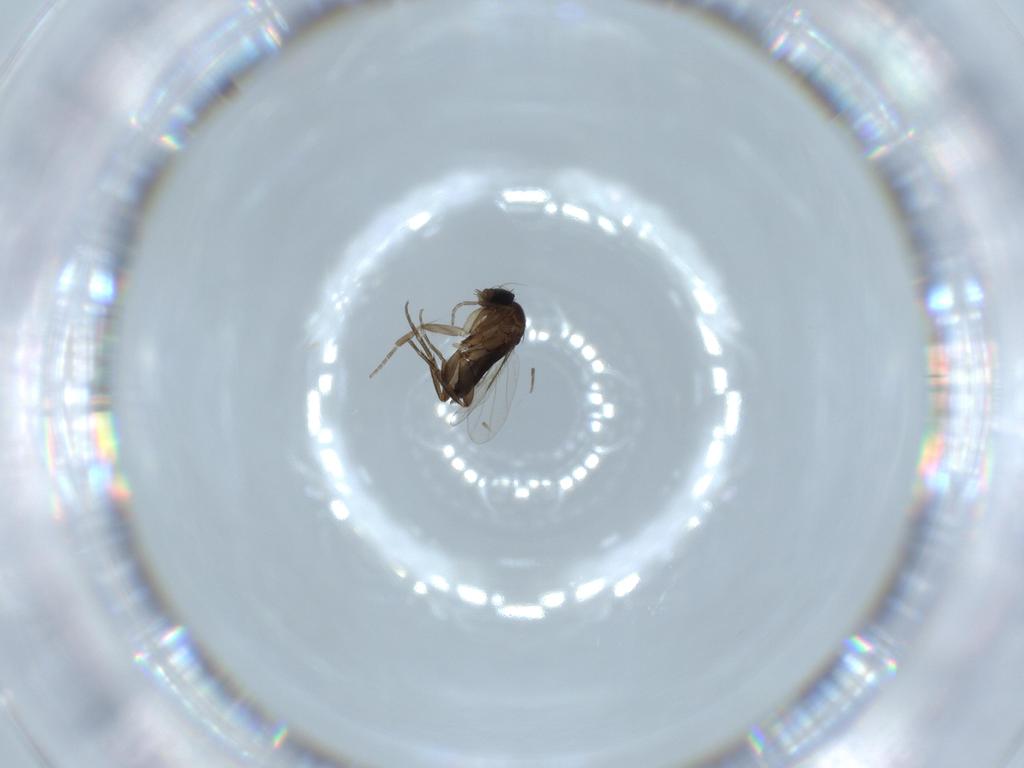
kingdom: Animalia
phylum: Arthropoda
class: Insecta
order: Diptera
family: Phoridae
